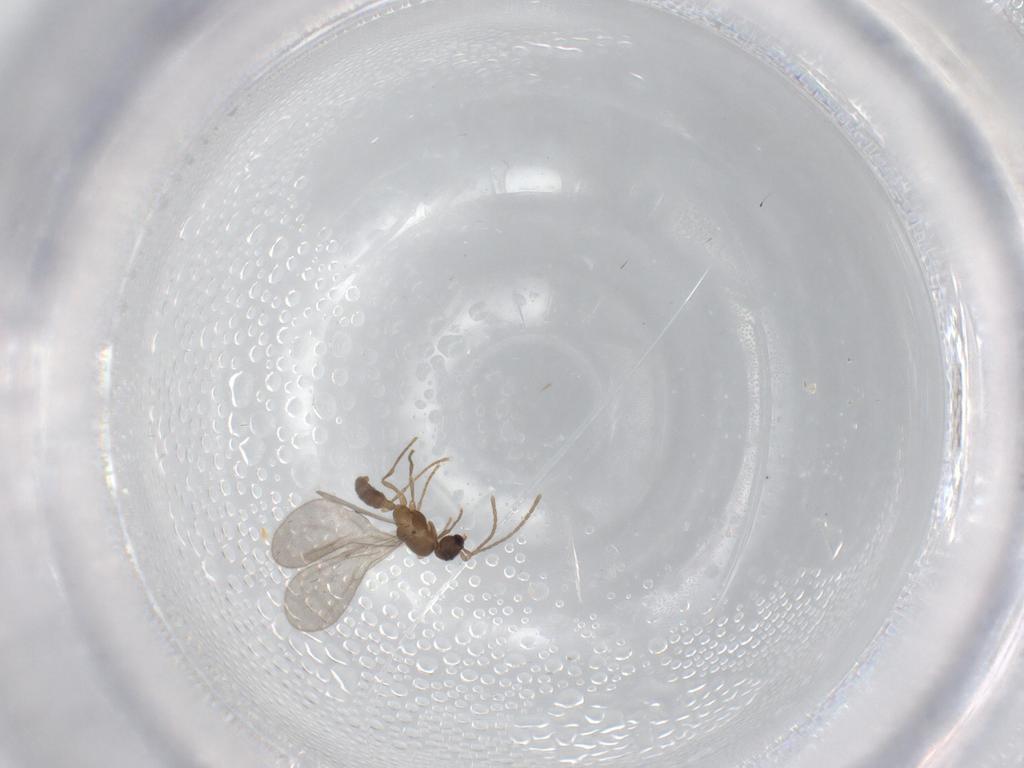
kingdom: Animalia
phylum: Arthropoda
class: Insecta
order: Hymenoptera
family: Formicidae
